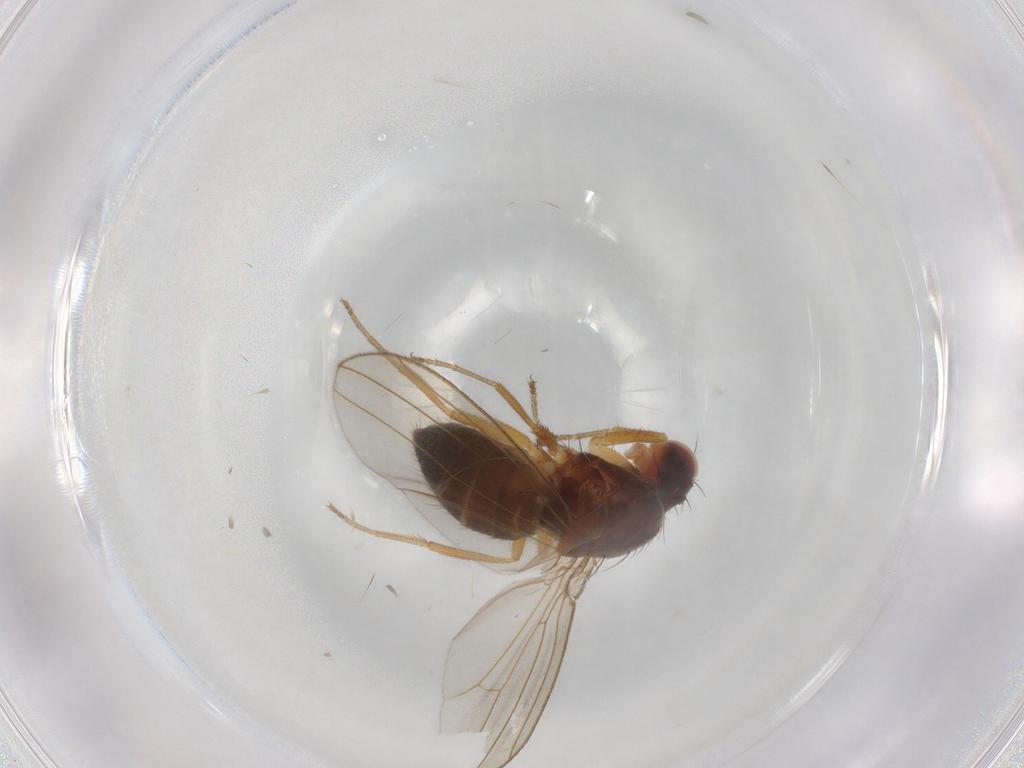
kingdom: Animalia
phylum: Arthropoda
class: Insecta
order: Diptera
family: Drosophilidae
